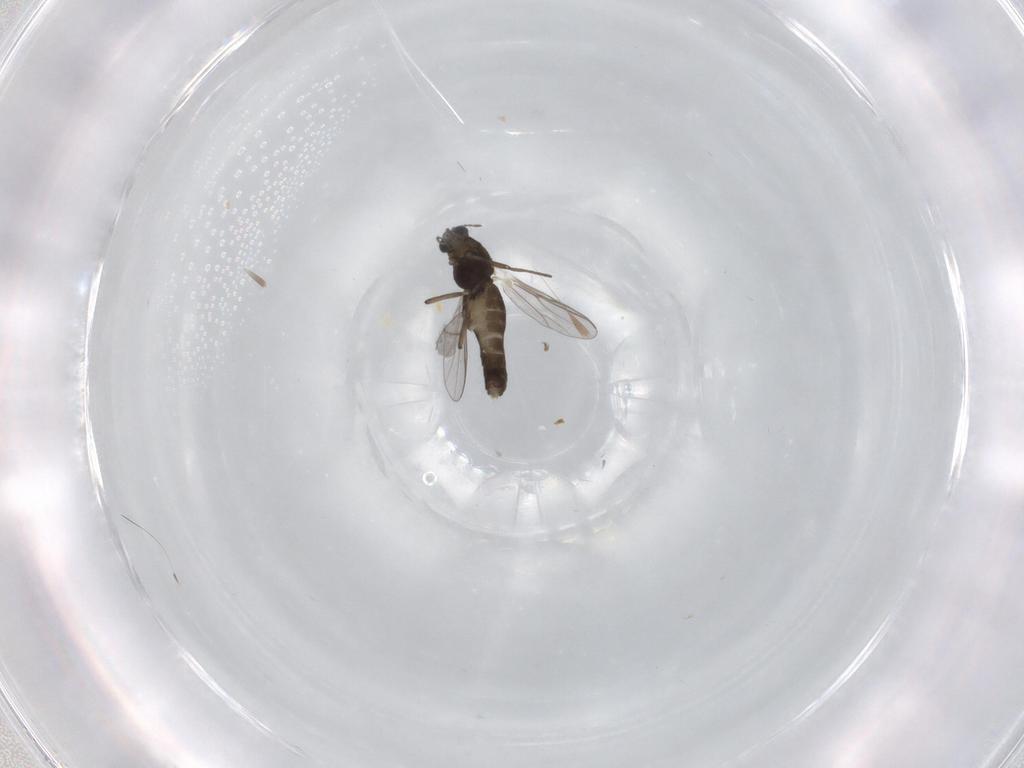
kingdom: Animalia
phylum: Arthropoda
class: Insecta
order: Diptera
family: Chironomidae
